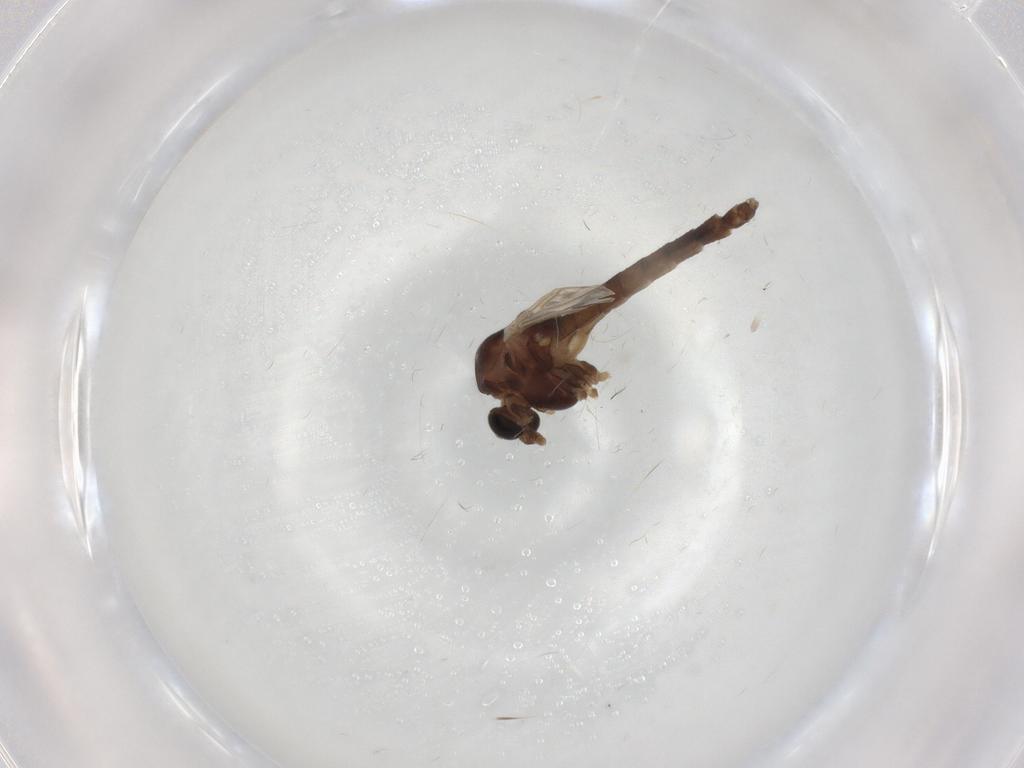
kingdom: Animalia
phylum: Arthropoda
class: Insecta
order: Diptera
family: Chironomidae
